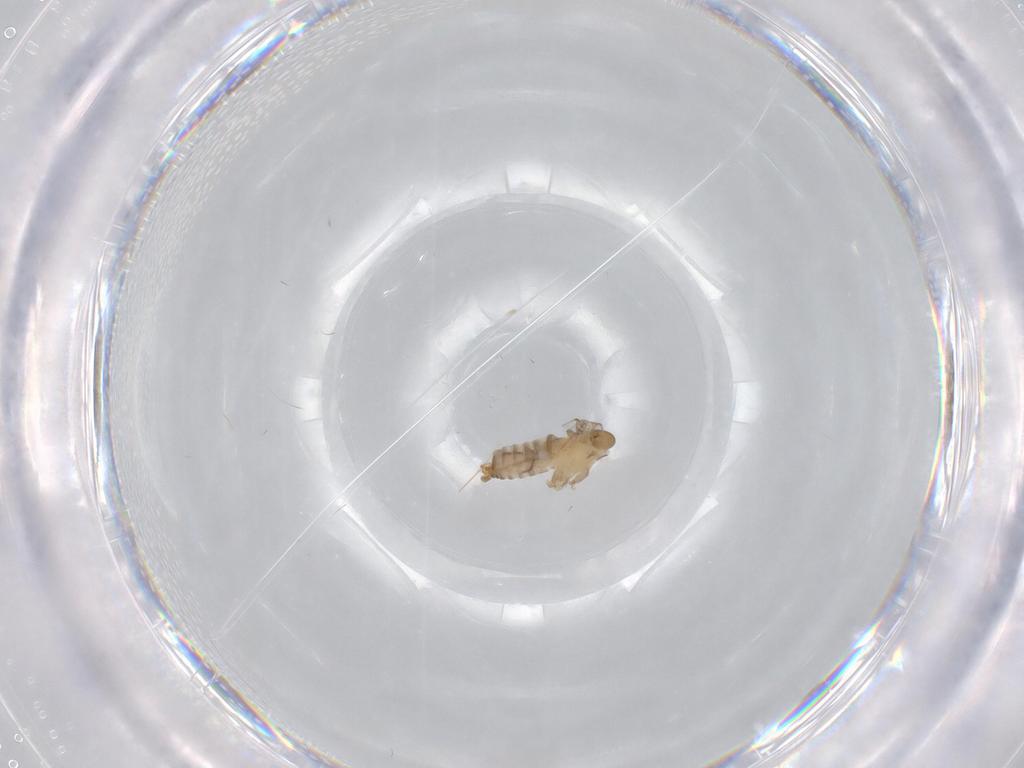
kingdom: Animalia
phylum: Arthropoda
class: Insecta
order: Diptera
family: Psychodidae
